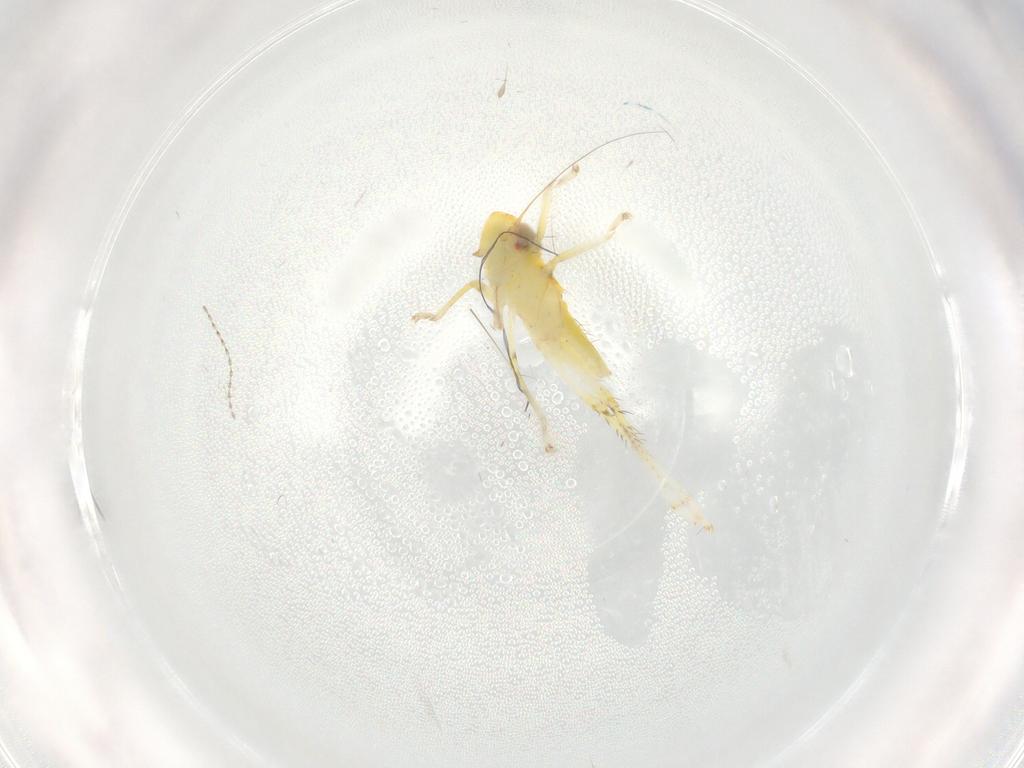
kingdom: Animalia
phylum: Arthropoda
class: Insecta
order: Hemiptera
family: Cicadellidae
